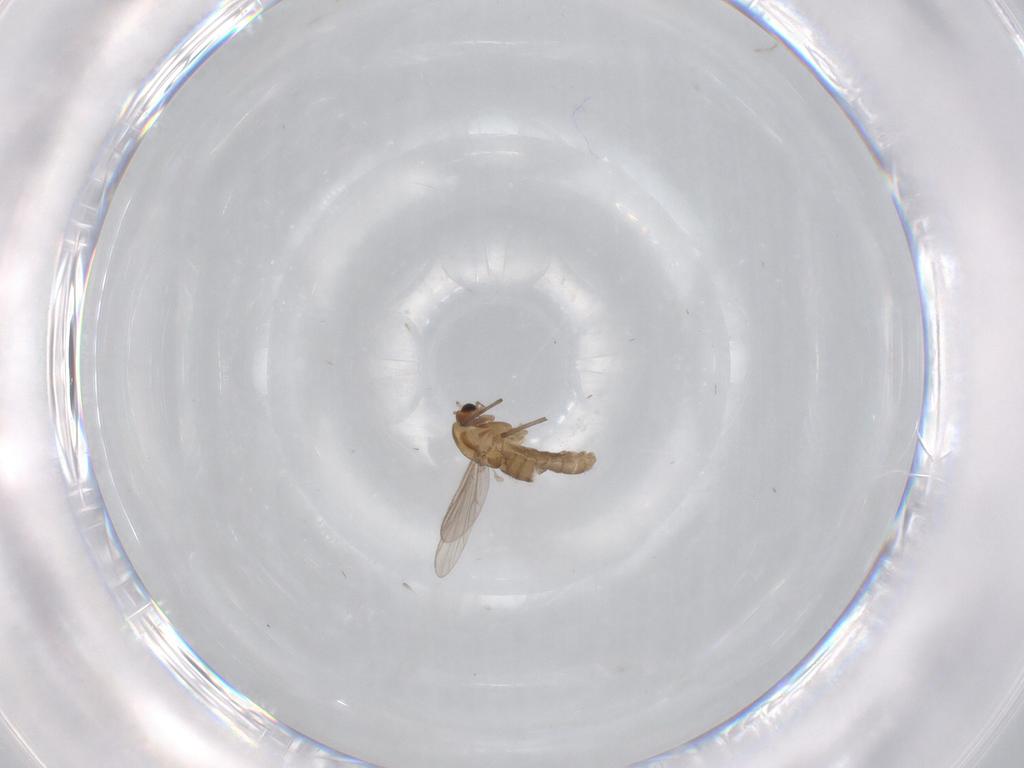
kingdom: Animalia
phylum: Arthropoda
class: Insecta
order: Diptera
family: Chironomidae
